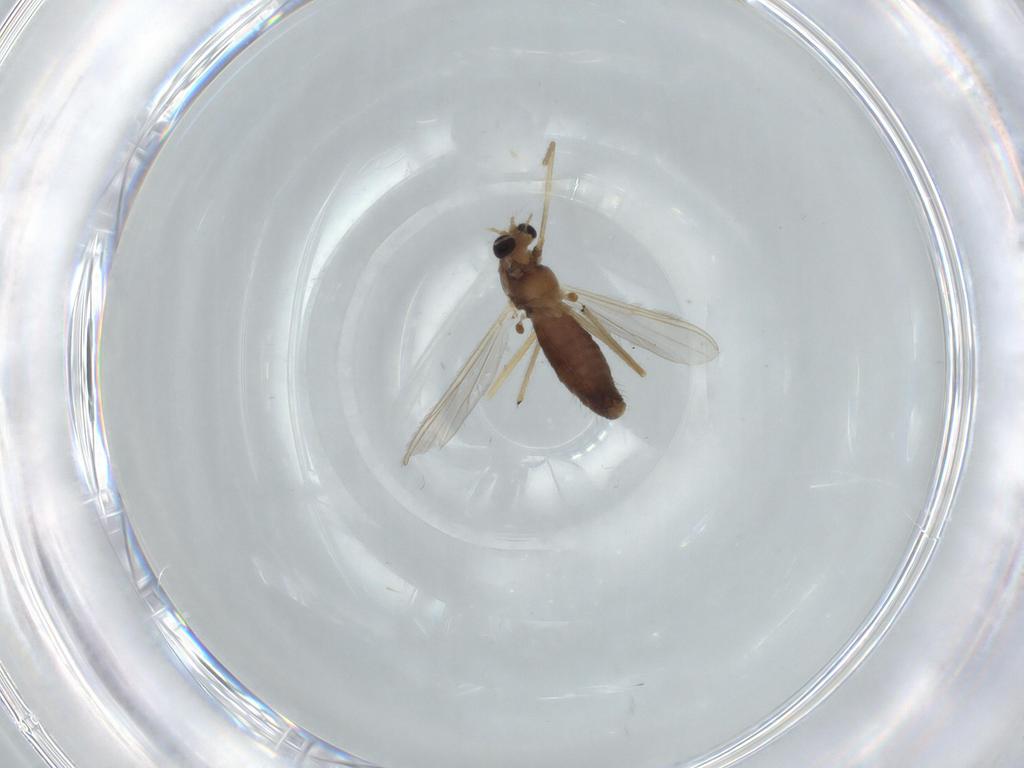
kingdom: Animalia
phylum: Arthropoda
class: Insecta
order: Diptera
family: Chironomidae
